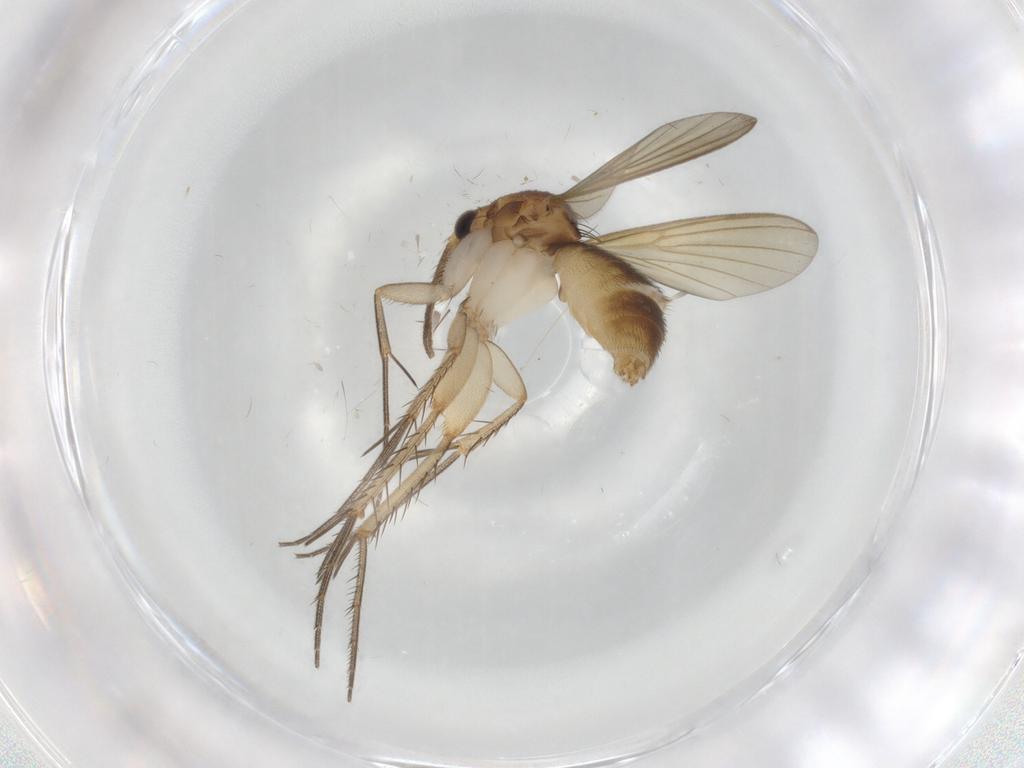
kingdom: Animalia
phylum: Arthropoda
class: Insecta
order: Diptera
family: Mycetophilidae
